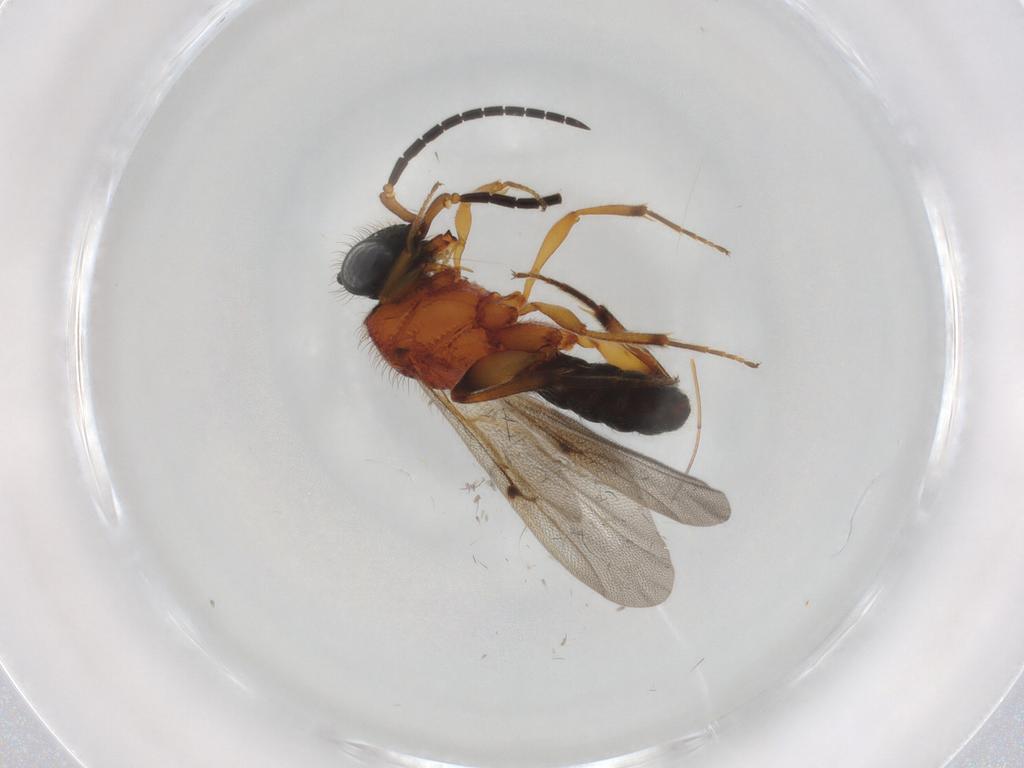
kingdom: Animalia
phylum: Arthropoda
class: Insecta
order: Hymenoptera
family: Scelionidae
